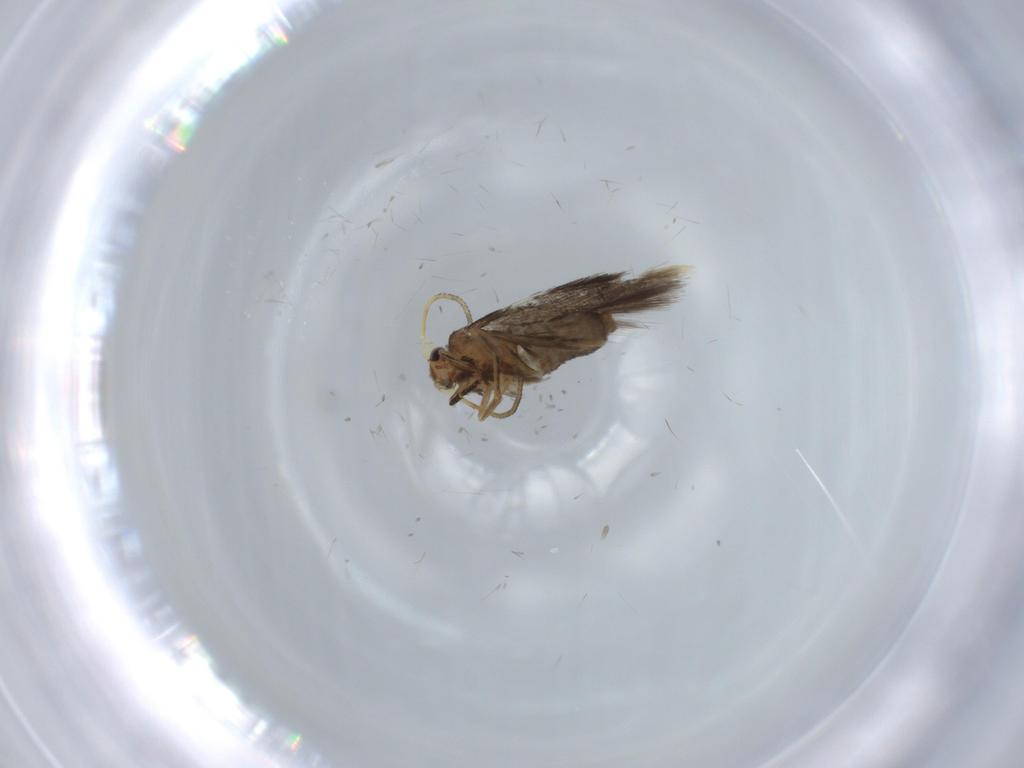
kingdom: Animalia
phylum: Arthropoda
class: Insecta
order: Lepidoptera
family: Nepticulidae
